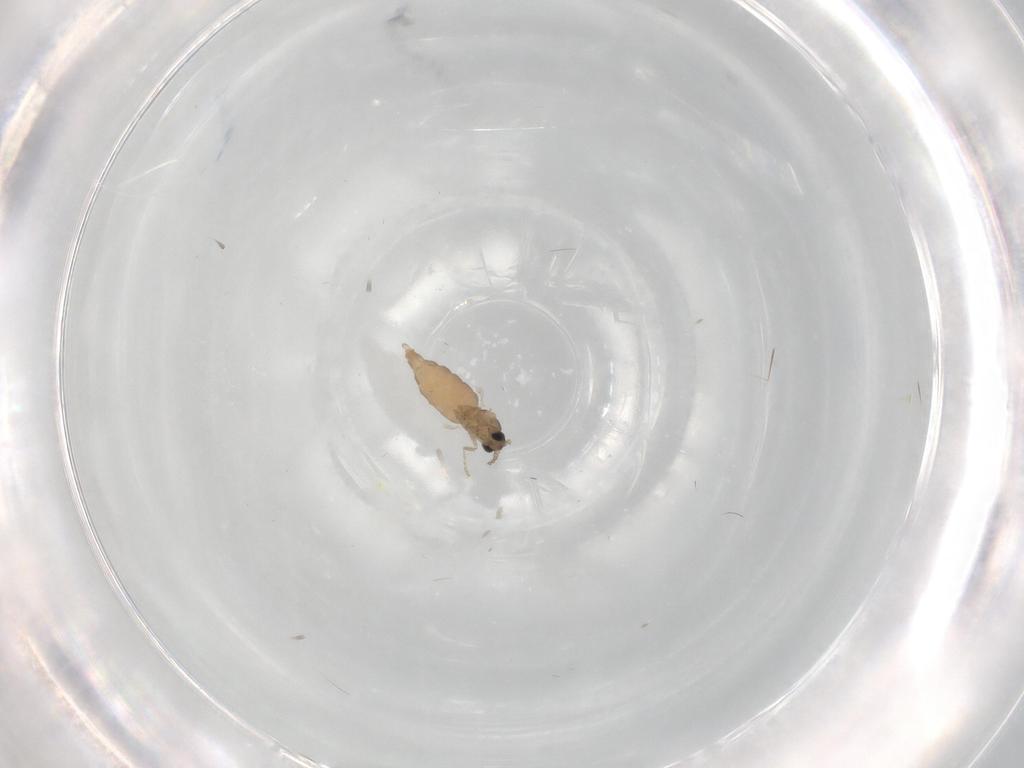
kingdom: Animalia
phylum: Arthropoda
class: Insecta
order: Diptera
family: Cecidomyiidae
